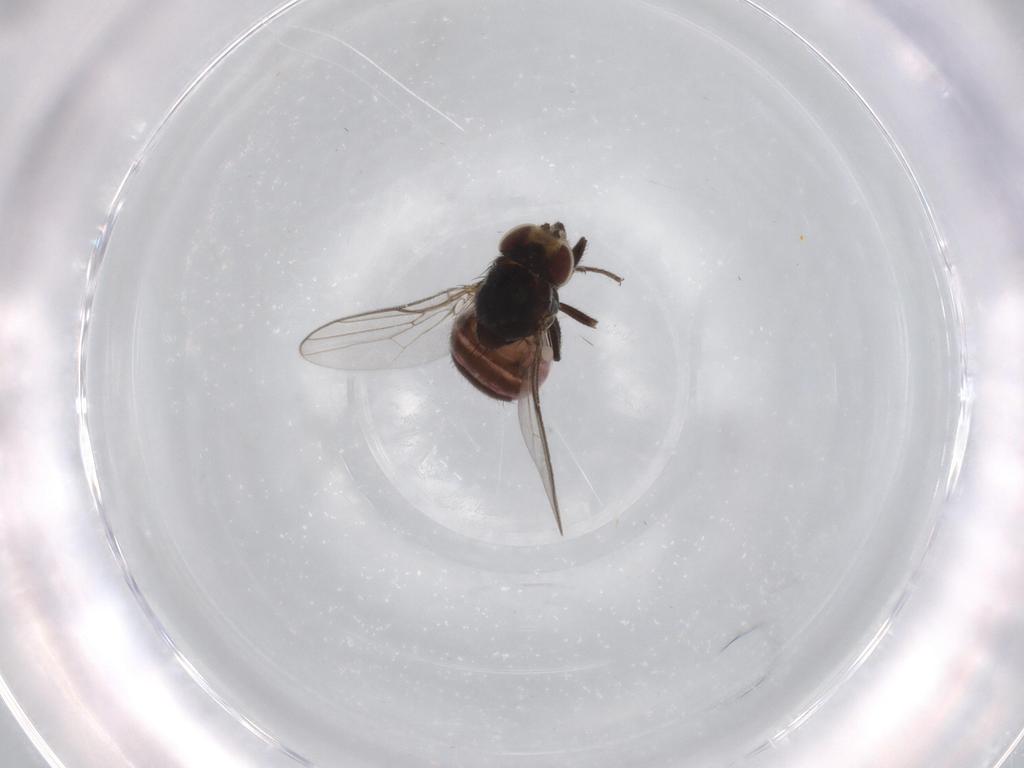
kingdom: Animalia
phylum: Arthropoda
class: Insecta
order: Diptera
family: Chloropidae
